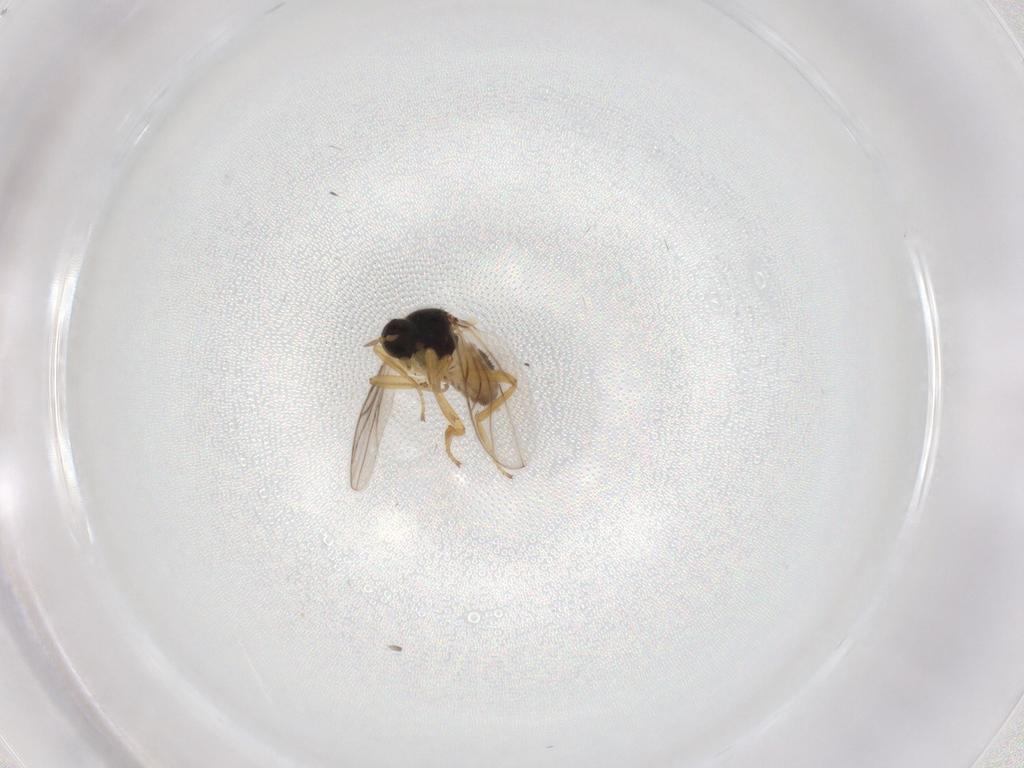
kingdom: Animalia
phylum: Arthropoda
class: Insecta
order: Diptera
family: Hybotidae
